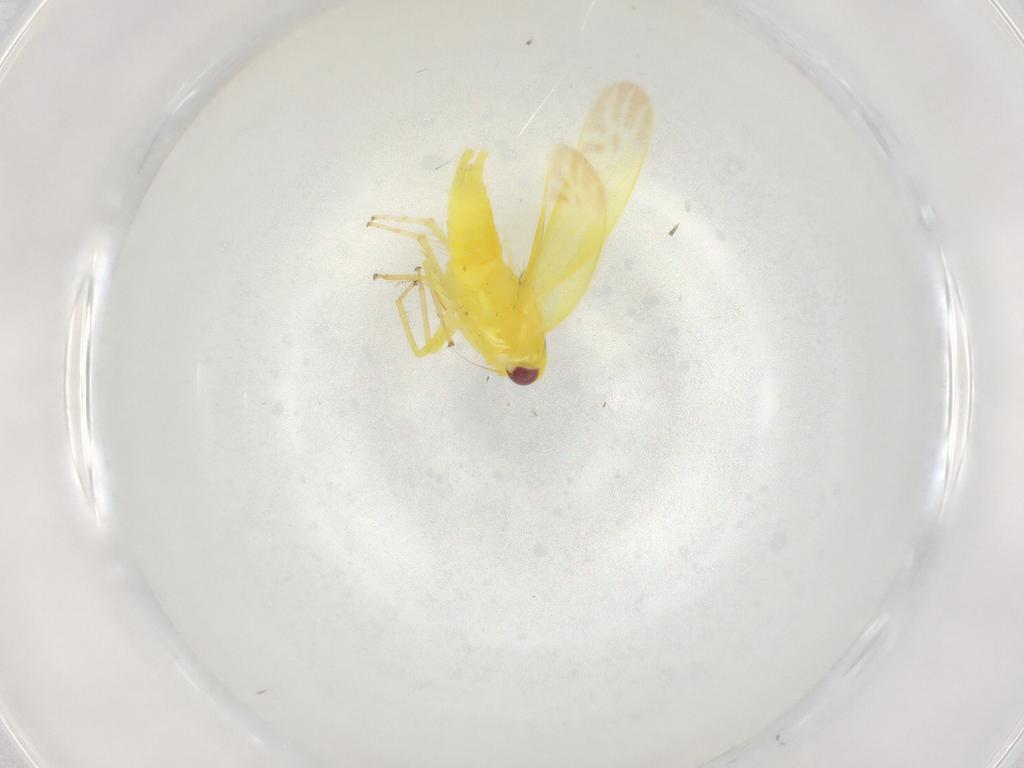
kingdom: Animalia
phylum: Arthropoda
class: Insecta
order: Hemiptera
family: Cicadellidae
